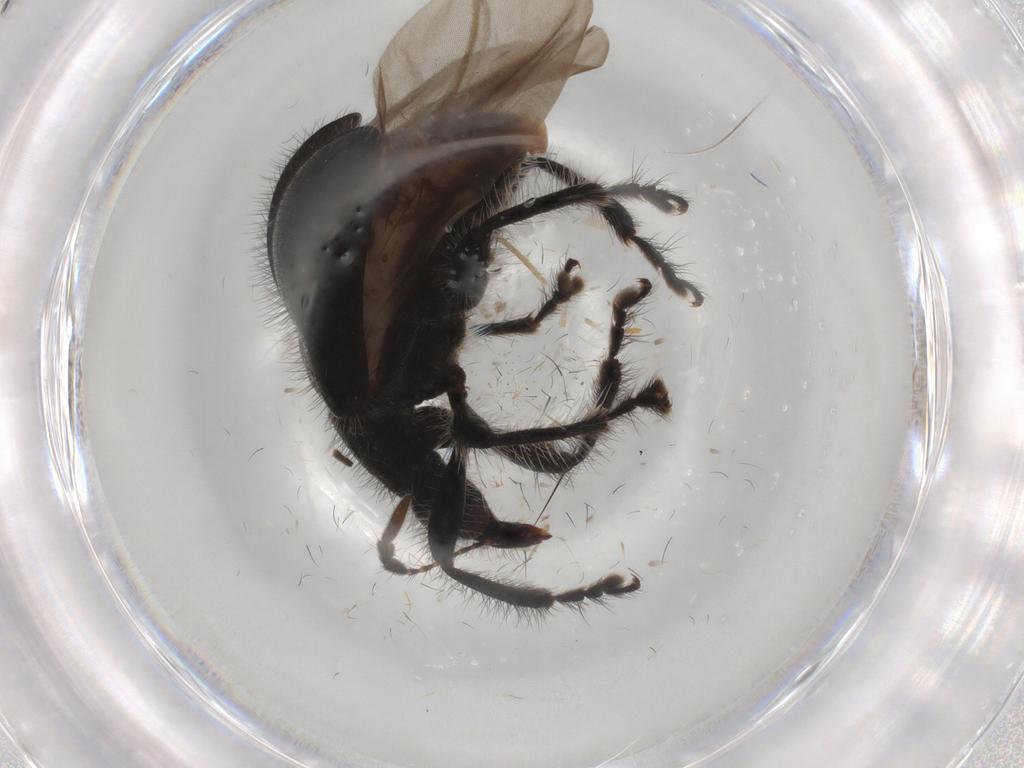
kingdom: Animalia
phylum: Arthropoda
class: Insecta
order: Coleoptera
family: Attelabidae
